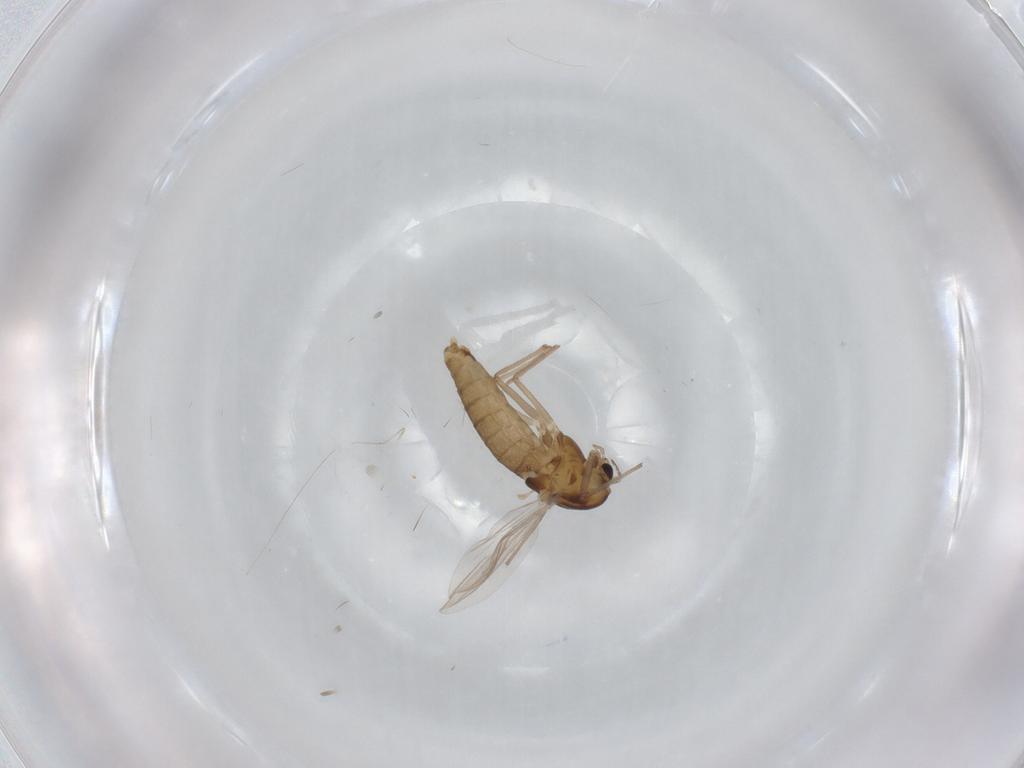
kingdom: Animalia
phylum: Arthropoda
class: Insecta
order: Diptera
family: Chironomidae
